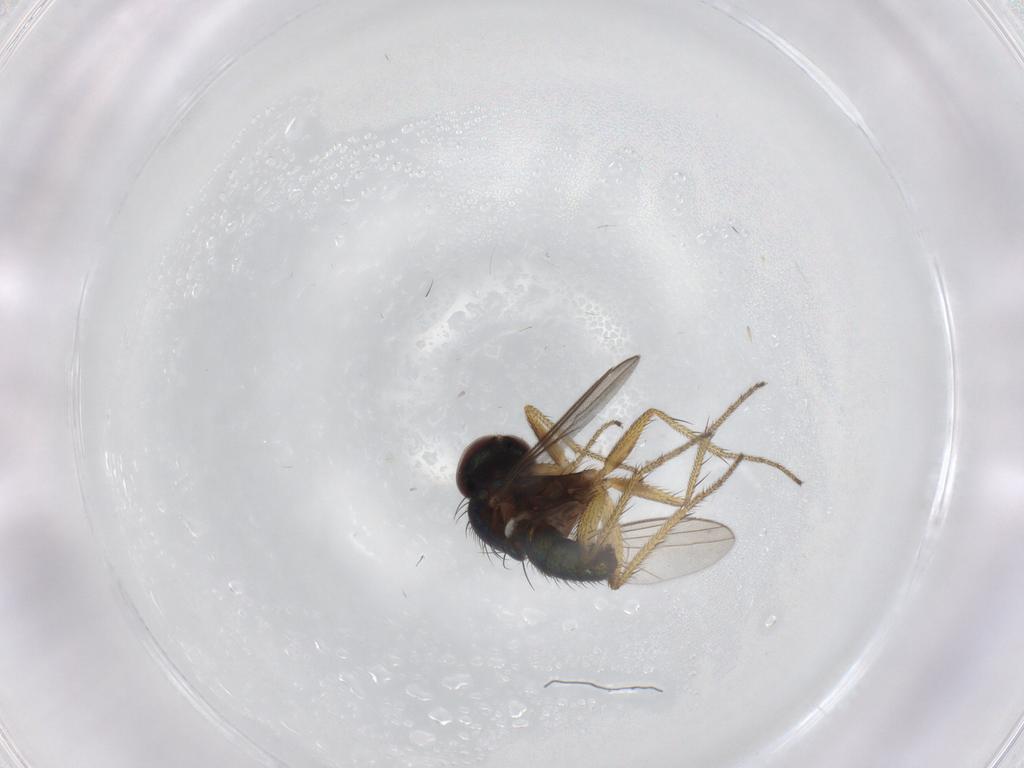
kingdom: Animalia
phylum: Arthropoda
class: Insecta
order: Diptera
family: Dolichopodidae
